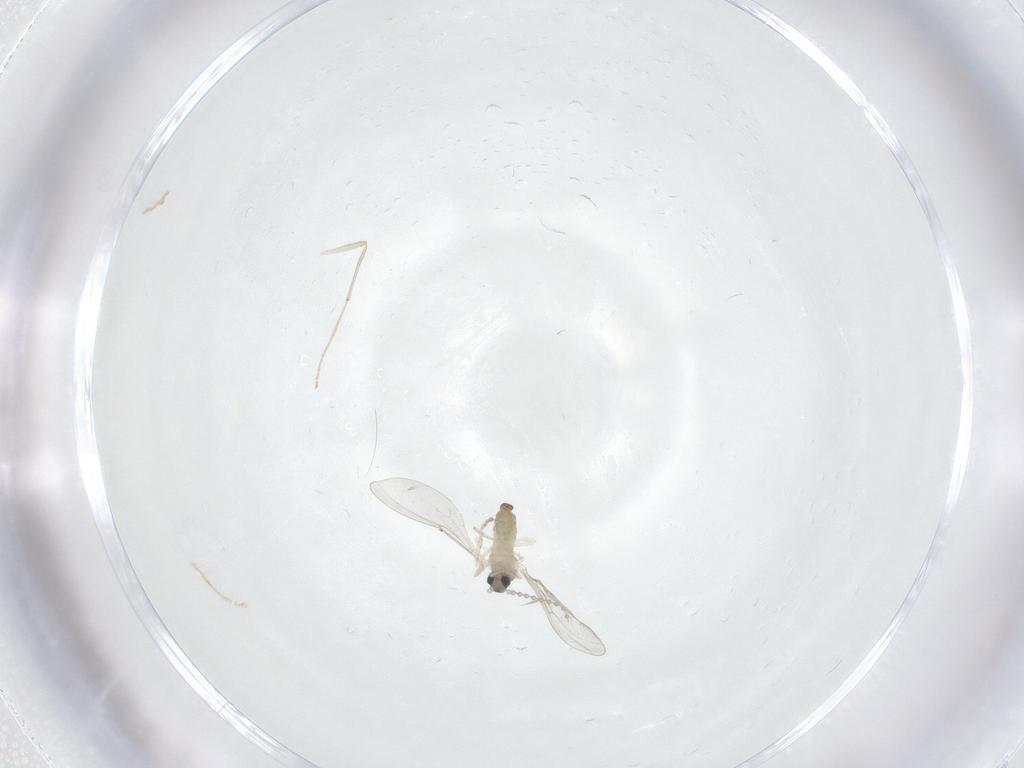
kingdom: Animalia
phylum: Arthropoda
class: Insecta
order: Diptera
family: Cecidomyiidae
